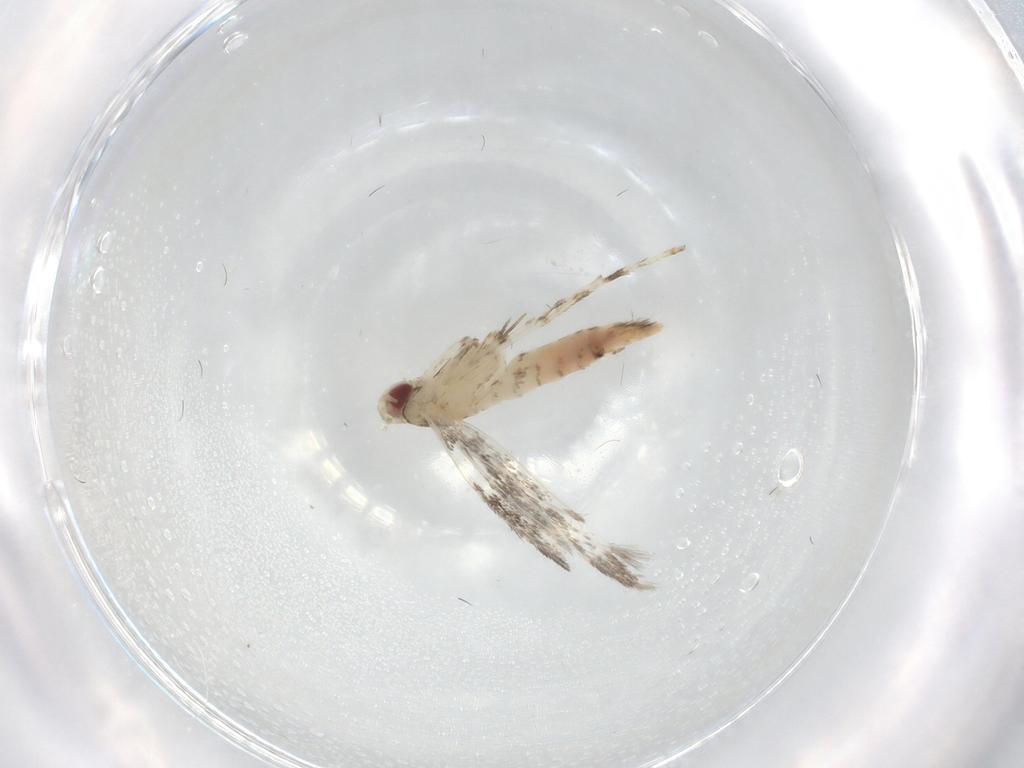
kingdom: Animalia
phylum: Arthropoda
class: Insecta
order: Lepidoptera
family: Gracillariidae
